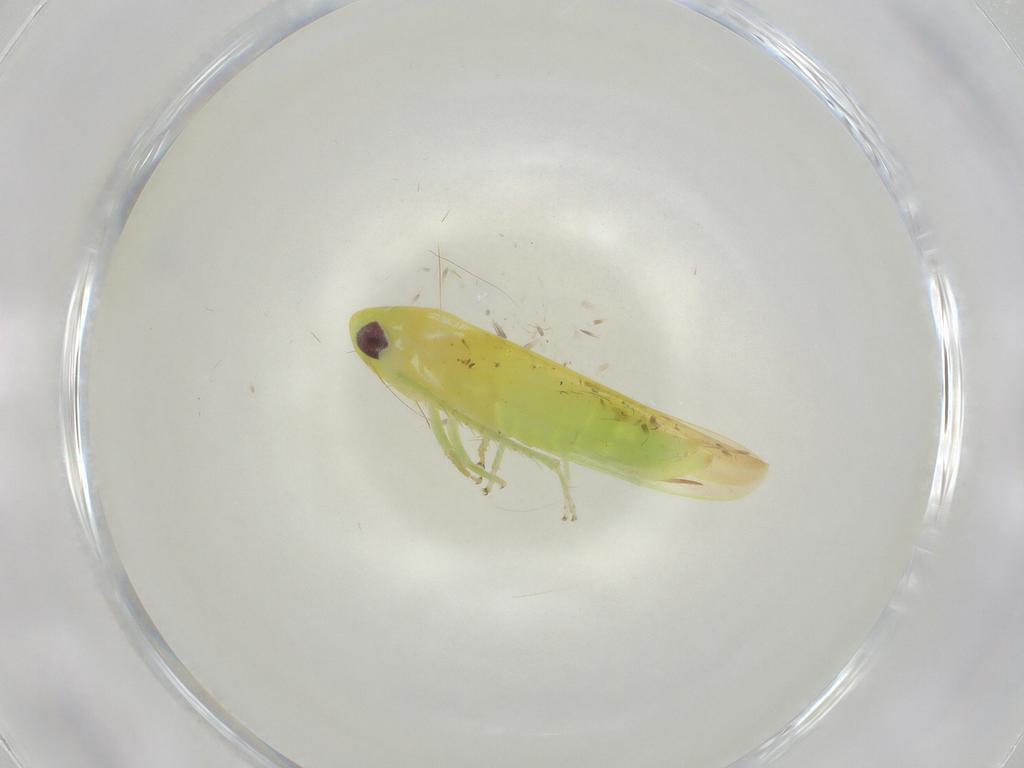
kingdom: Animalia
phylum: Arthropoda
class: Insecta
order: Hemiptera
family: Cicadellidae
